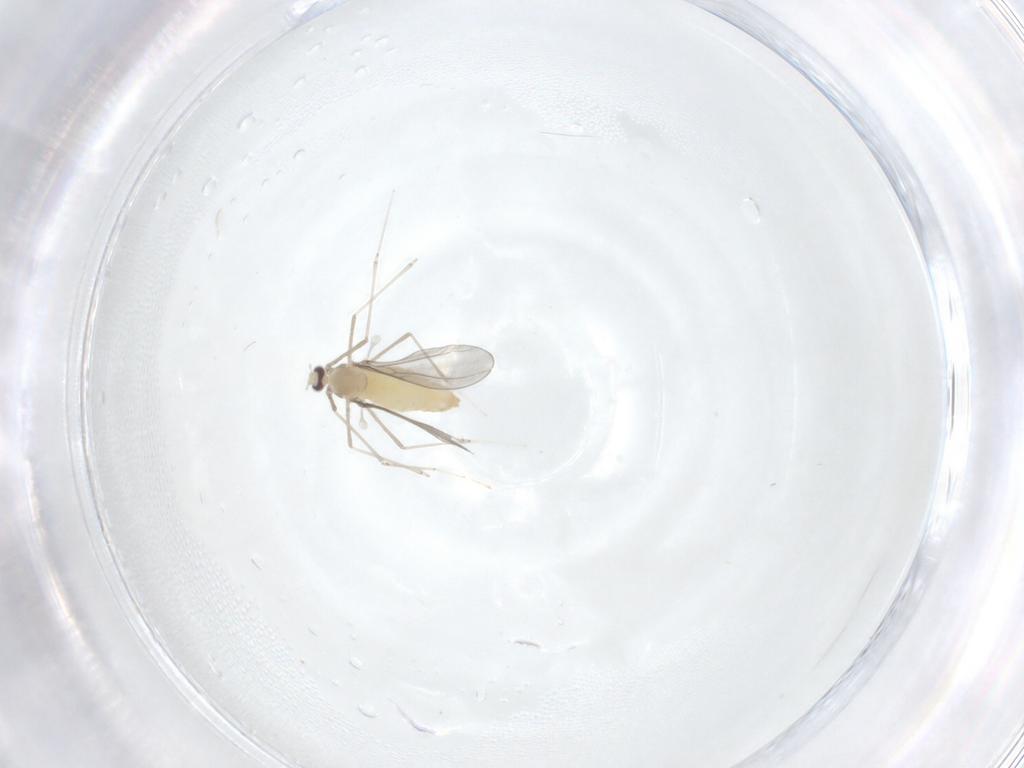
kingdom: Animalia
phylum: Arthropoda
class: Insecta
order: Diptera
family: Cecidomyiidae
